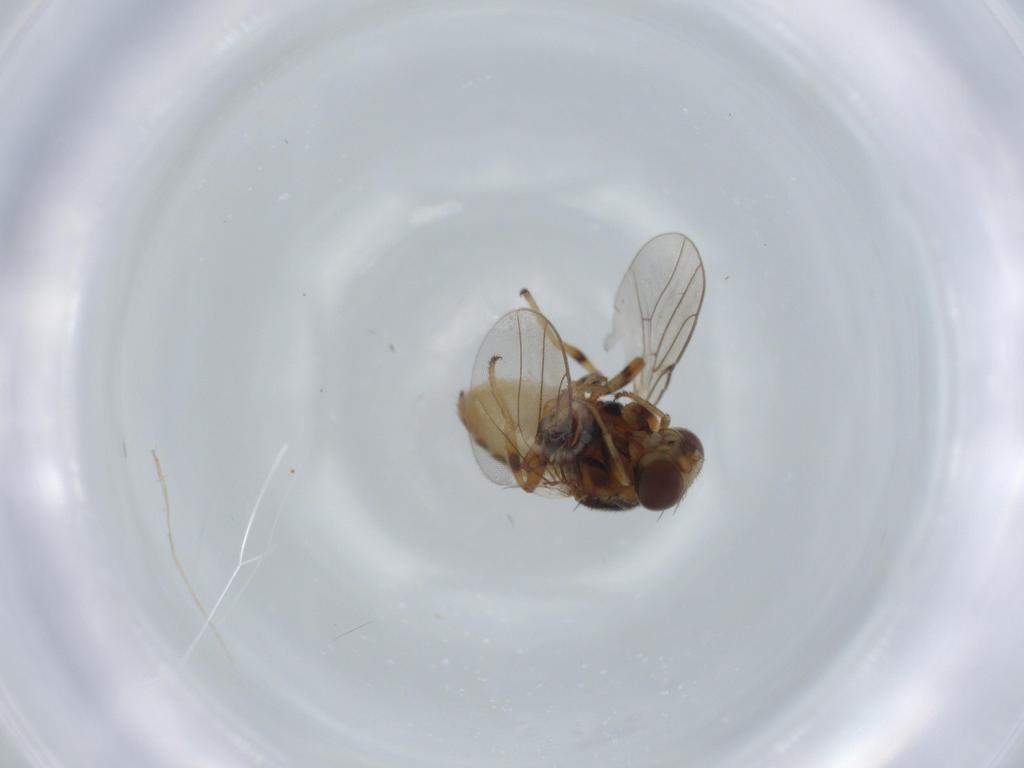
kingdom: Animalia
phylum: Arthropoda
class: Insecta
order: Diptera
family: Chloropidae
